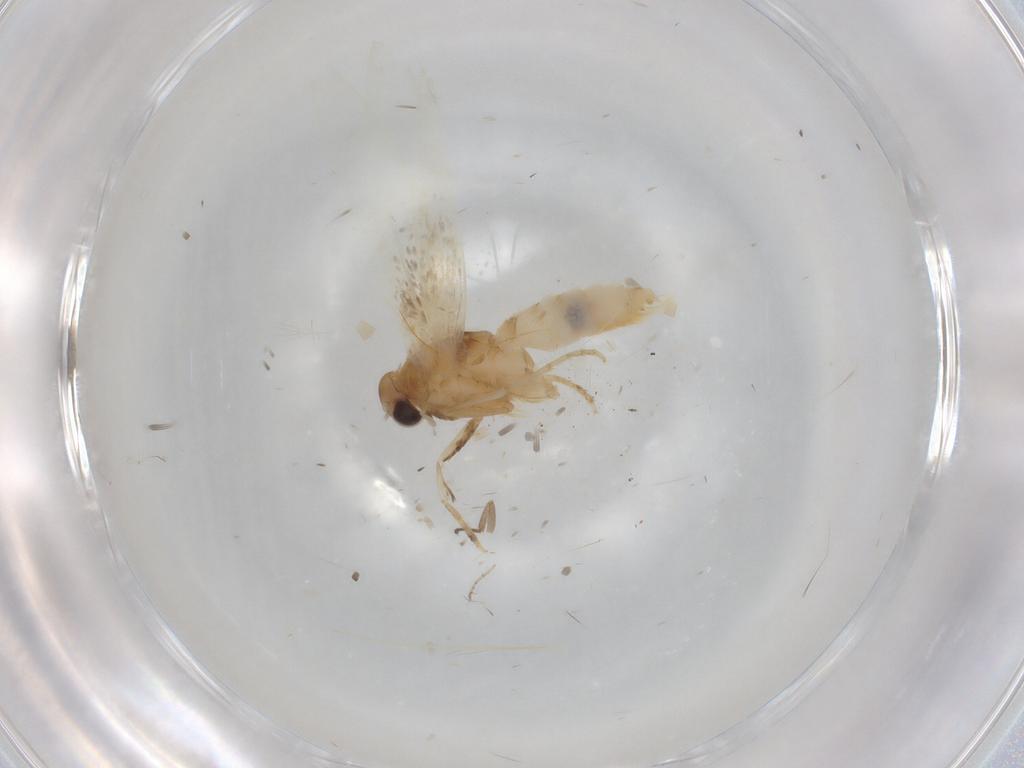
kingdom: Animalia
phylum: Arthropoda
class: Insecta
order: Lepidoptera
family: Elachistidae
